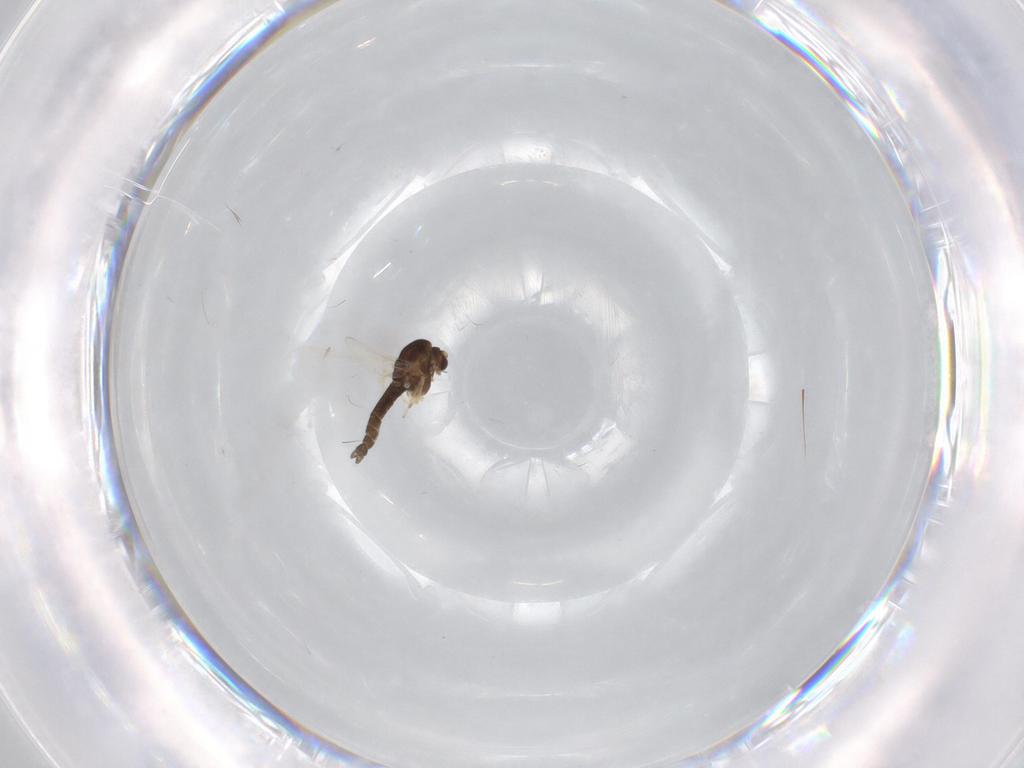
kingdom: Animalia
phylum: Arthropoda
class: Insecta
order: Diptera
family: Chironomidae
